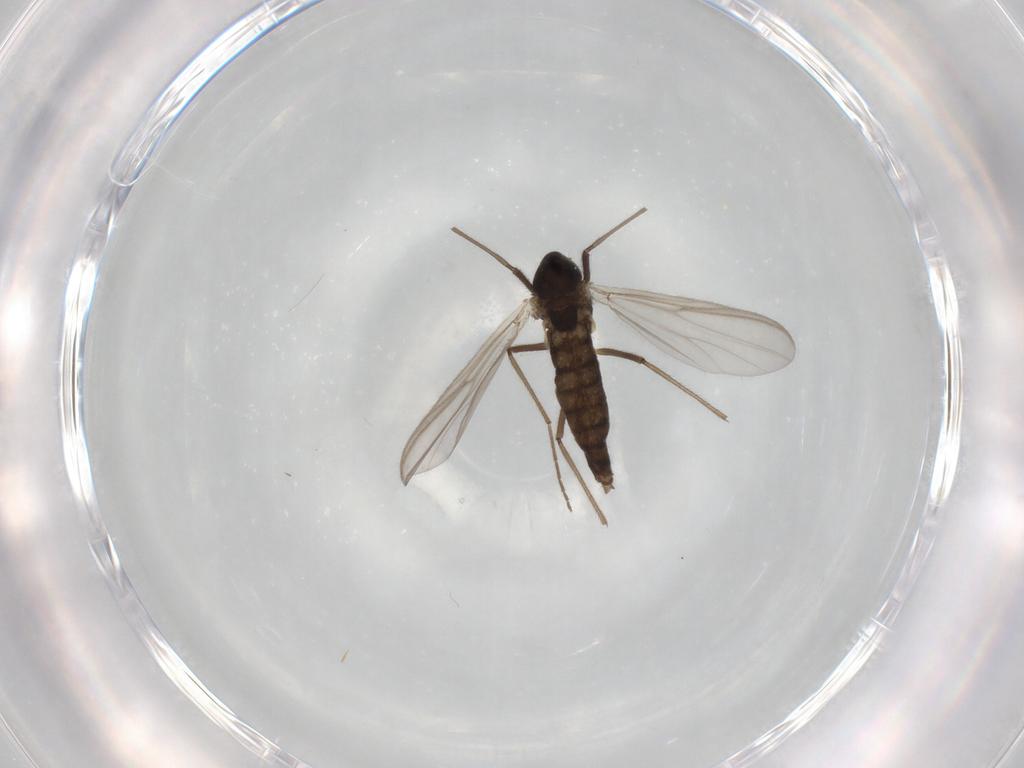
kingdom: Animalia
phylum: Arthropoda
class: Insecta
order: Diptera
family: Chironomidae
